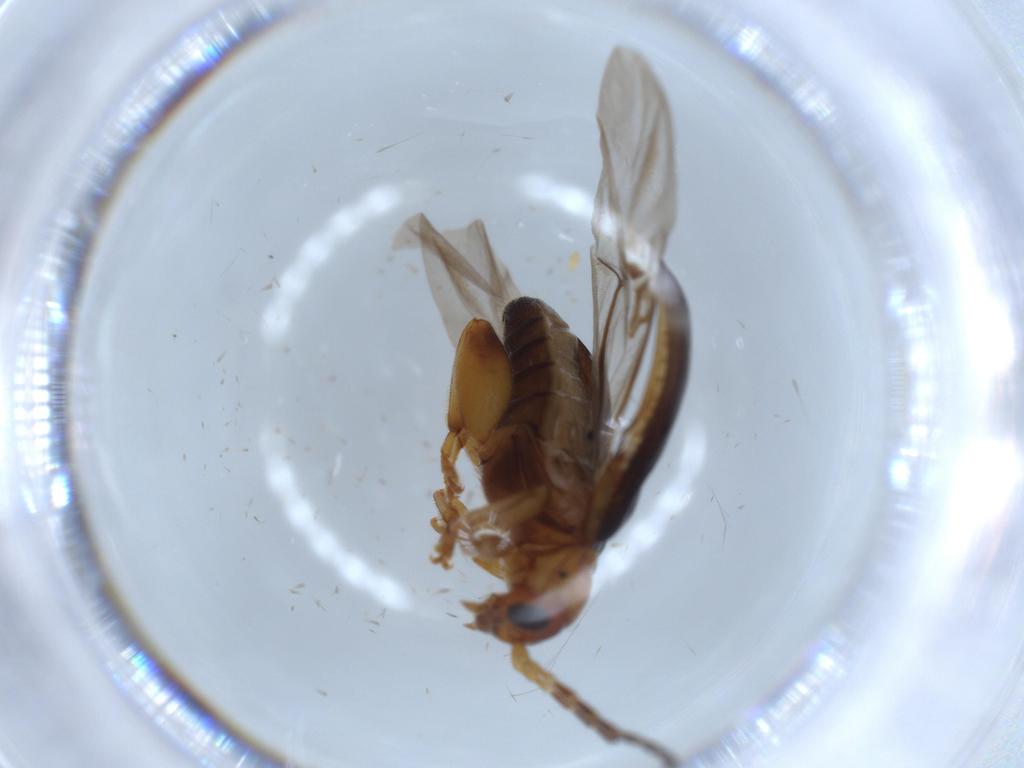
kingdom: Animalia
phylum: Arthropoda
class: Insecta
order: Coleoptera
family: Chrysomelidae
